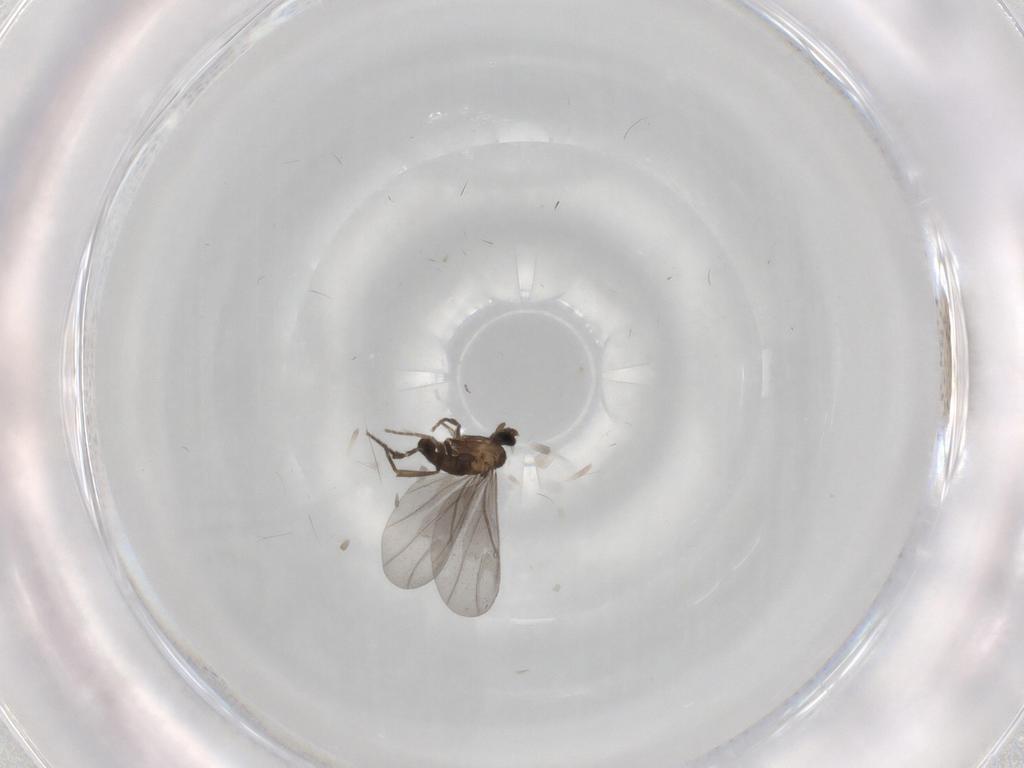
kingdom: Animalia
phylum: Arthropoda
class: Insecta
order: Diptera
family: Phoridae
